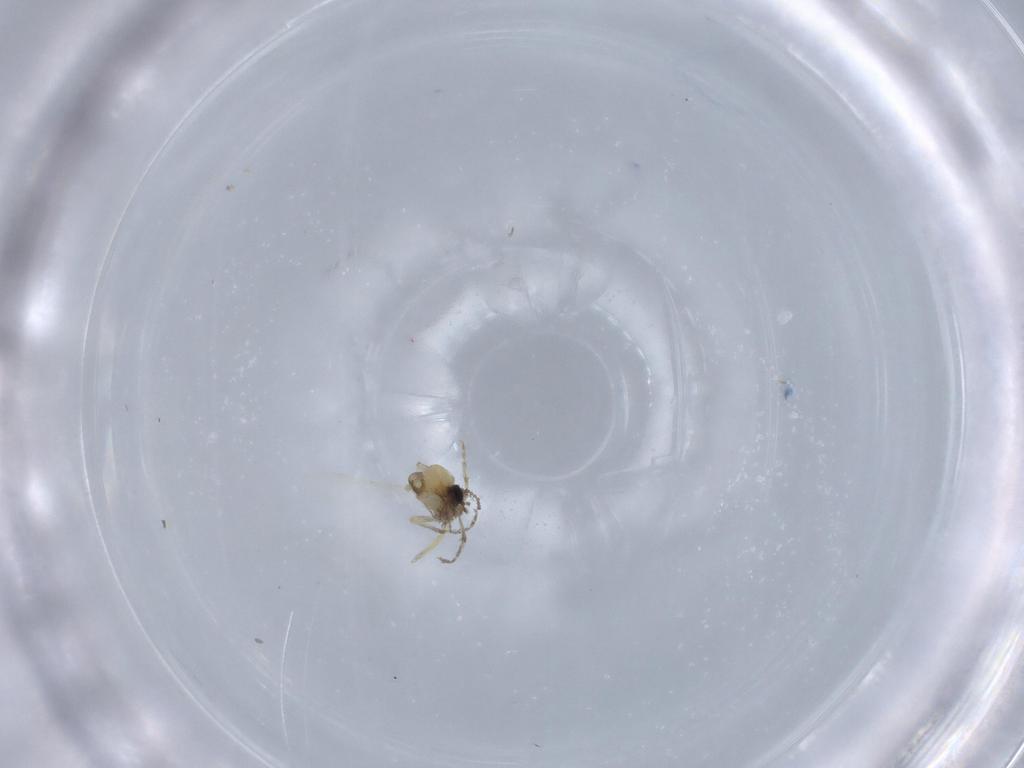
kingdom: Animalia
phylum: Arthropoda
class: Insecta
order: Diptera
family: Ceratopogonidae
